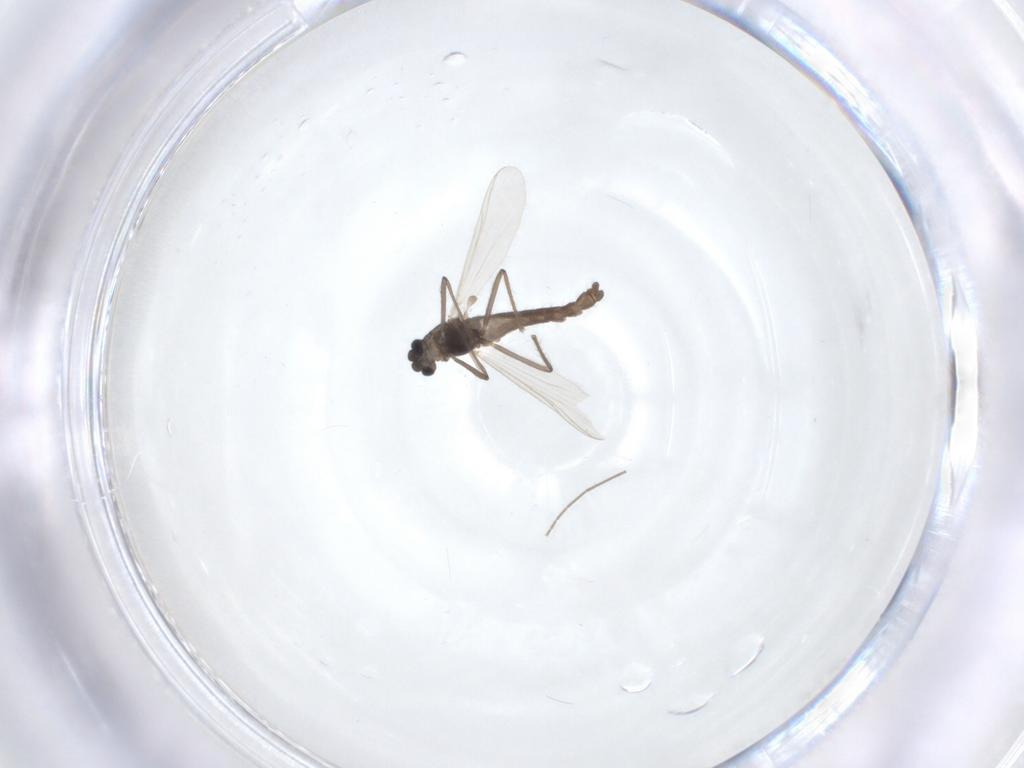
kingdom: Animalia
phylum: Arthropoda
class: Insecta
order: Diptera
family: Chironomidae
